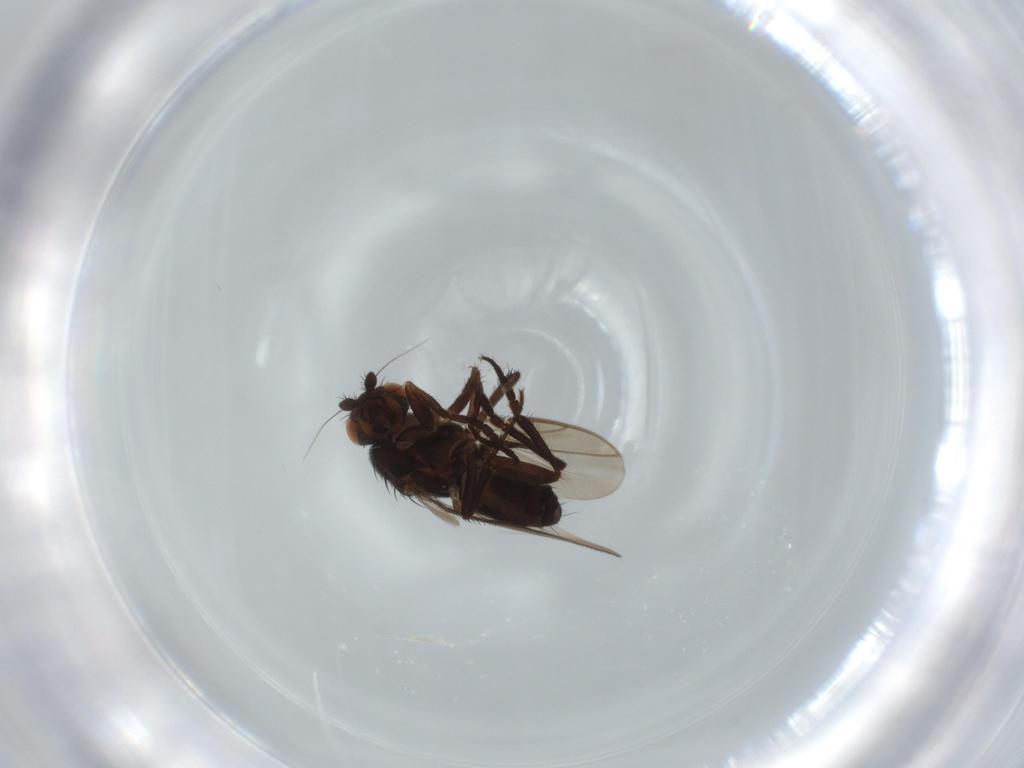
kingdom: Animalia
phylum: Arthropoda
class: Insecta
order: Diptera
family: Sphaeroceridae
